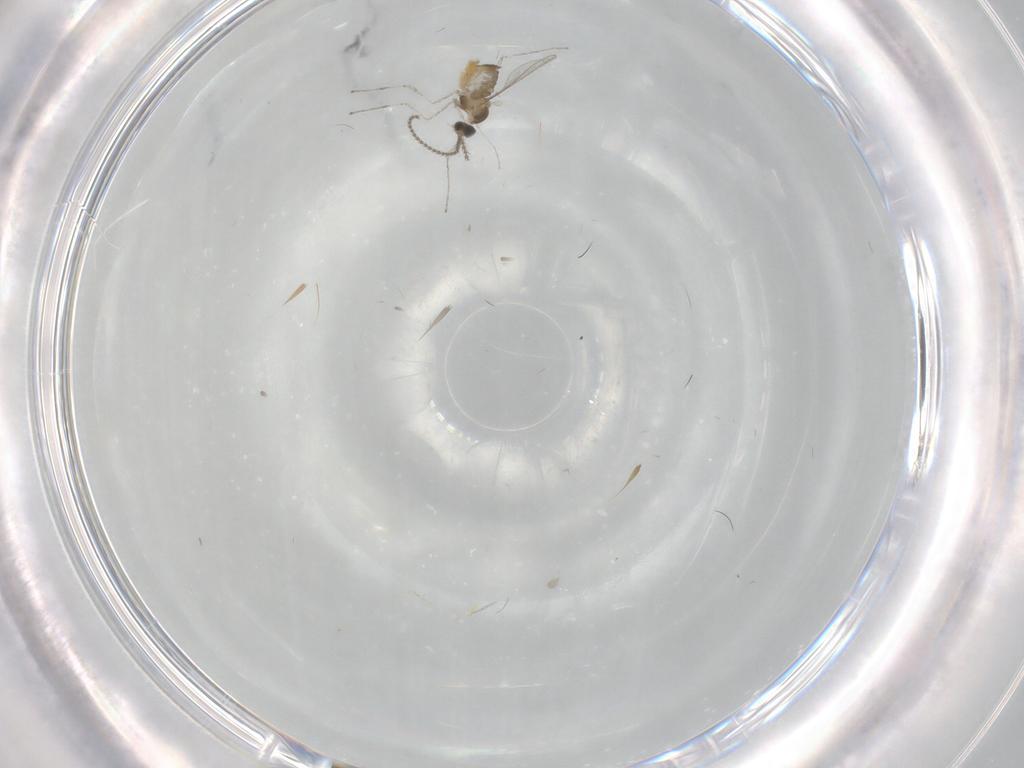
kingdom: Animalia
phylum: Arthropoda
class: Insecta
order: Diptera
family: Cecidomyiidae
